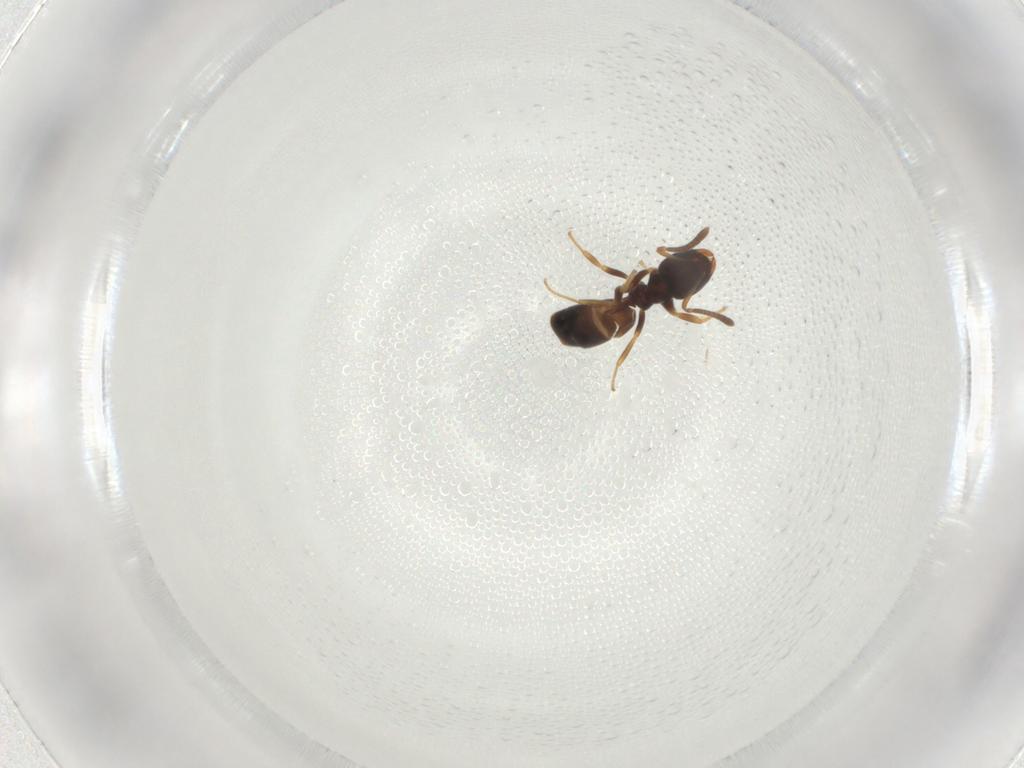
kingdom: Animalia
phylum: Arthropoda
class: Insecta
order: Hymenoptera
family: Formicidae
